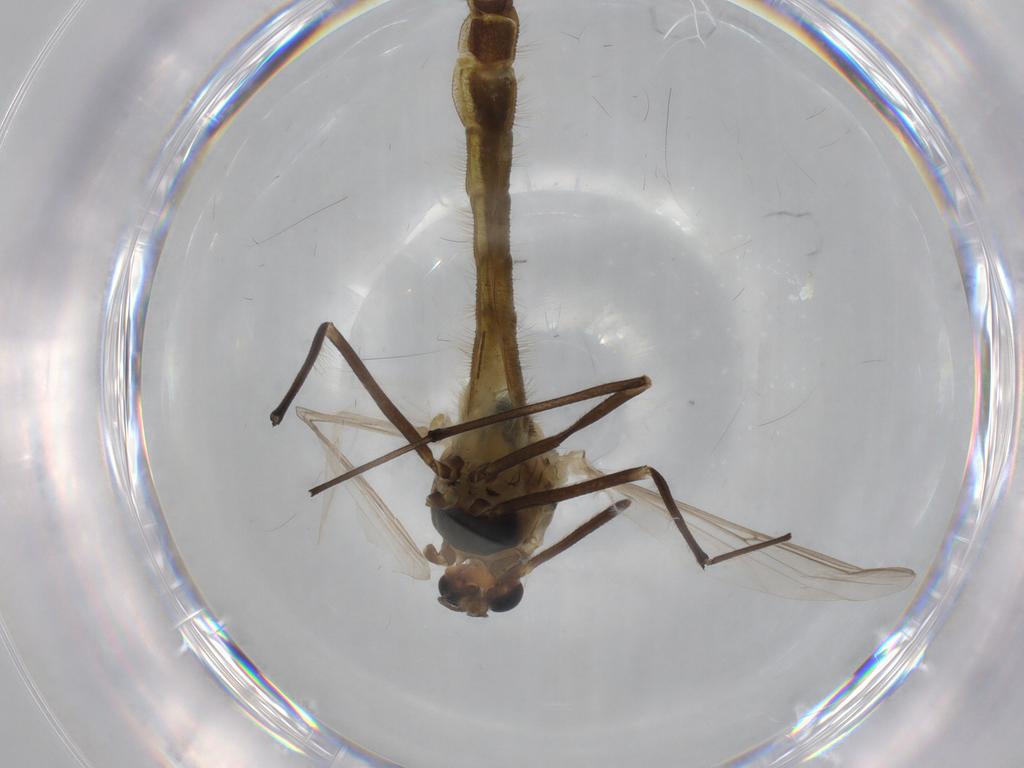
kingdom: Animalia
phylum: Arthropoda
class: Insecta
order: Diptera
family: Chironomidae
